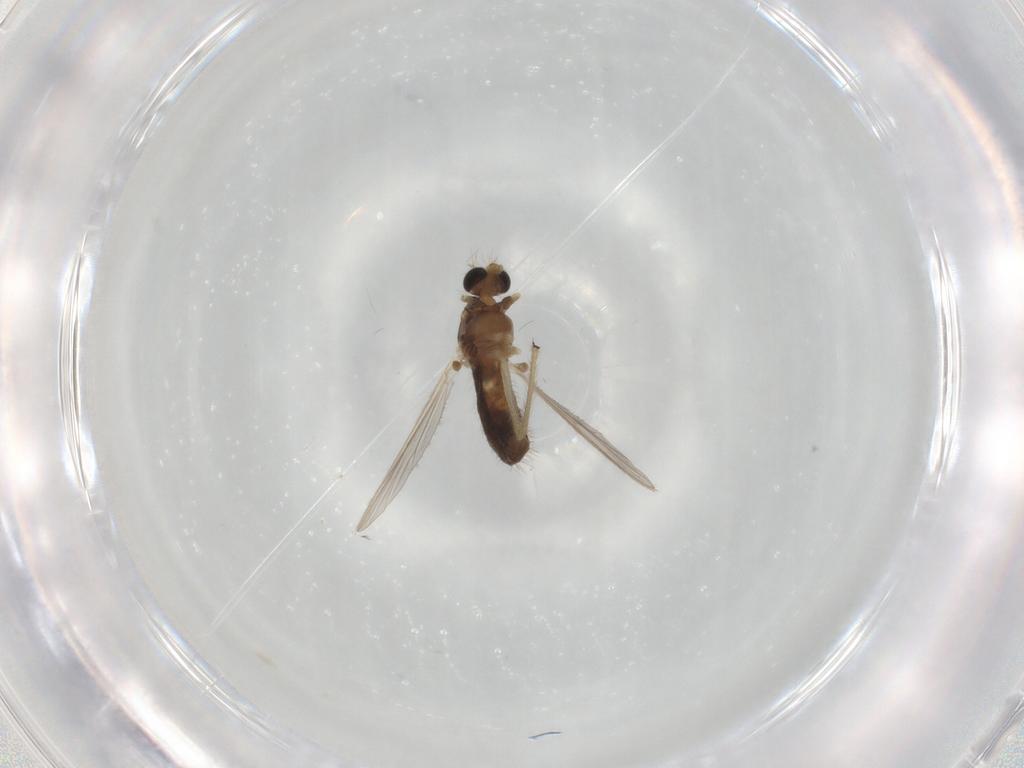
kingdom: Animalia
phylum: Arthropoda
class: Insecta
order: Diptera
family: Chironomidae
